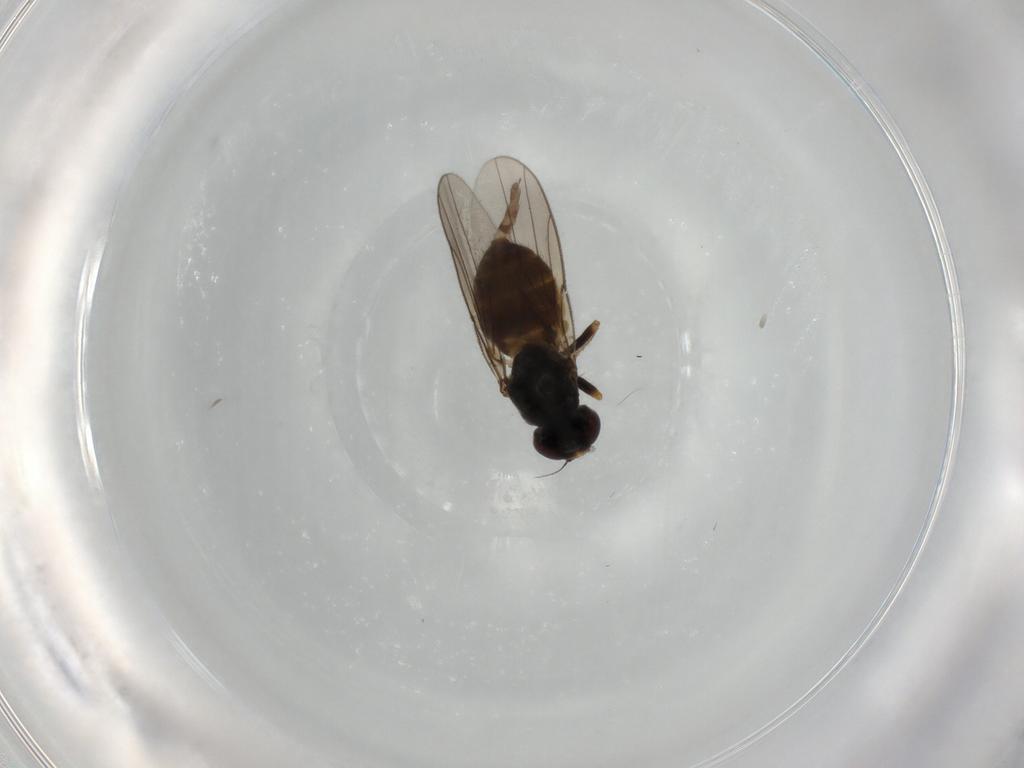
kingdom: Animalia
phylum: Arthropoda
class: Insecta
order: Diptera
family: Chloropidae
